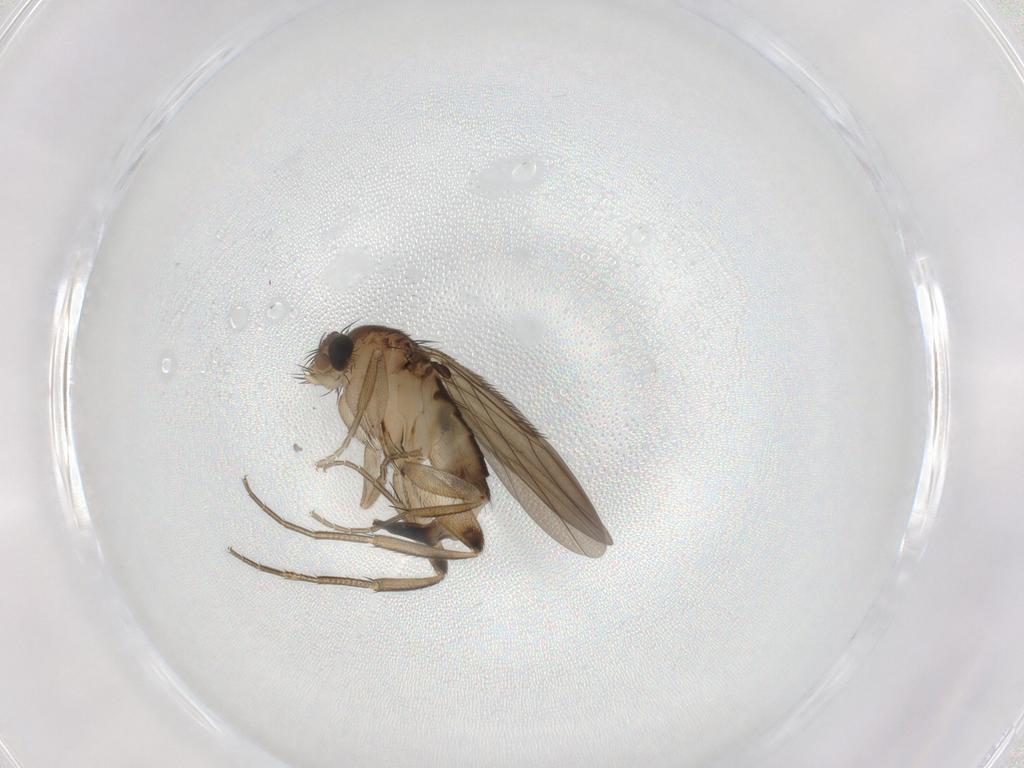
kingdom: Animalia
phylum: Arthropoda
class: Insecta
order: Diptera
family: Phoridae
